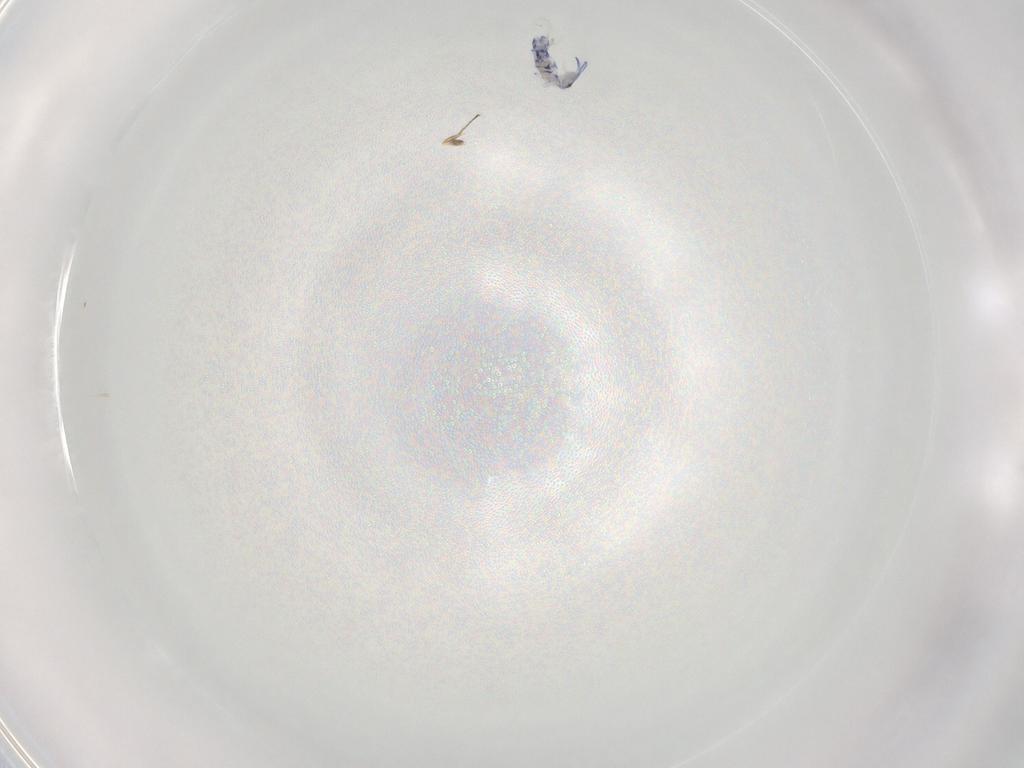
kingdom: Animalia
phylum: Arthropoda
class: Collembola
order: Entomobryomorpha
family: Entomobryidae
